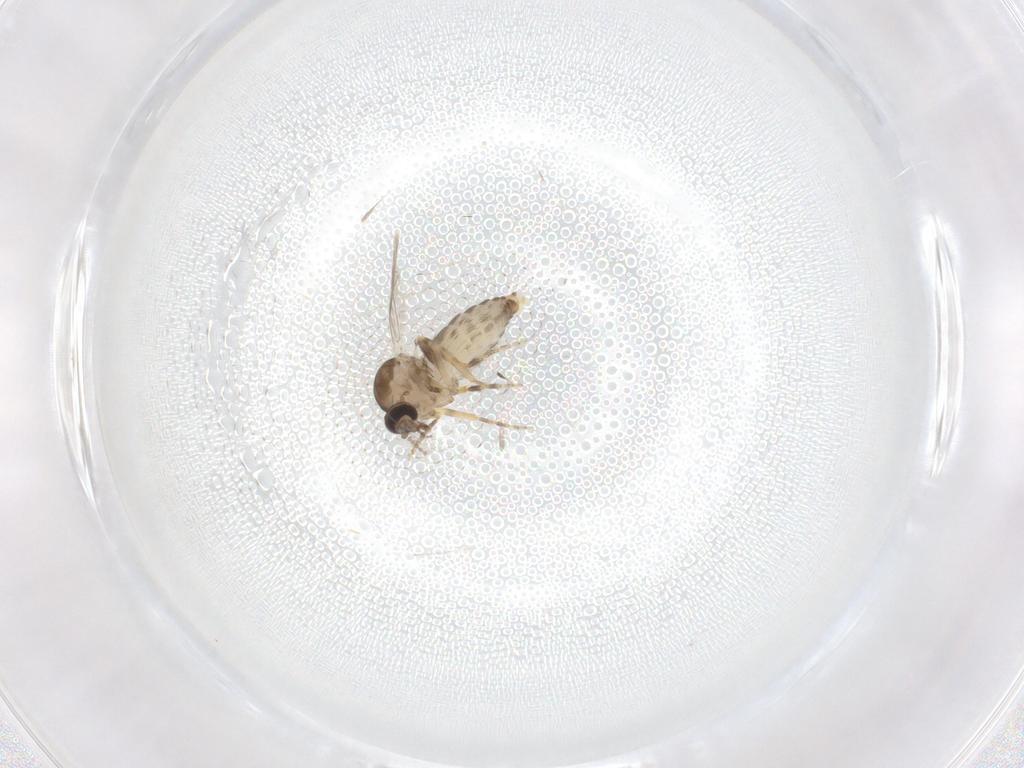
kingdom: Animalia
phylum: Arthropoda
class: Insecta
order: Diptera
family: Ceratopogonidae
